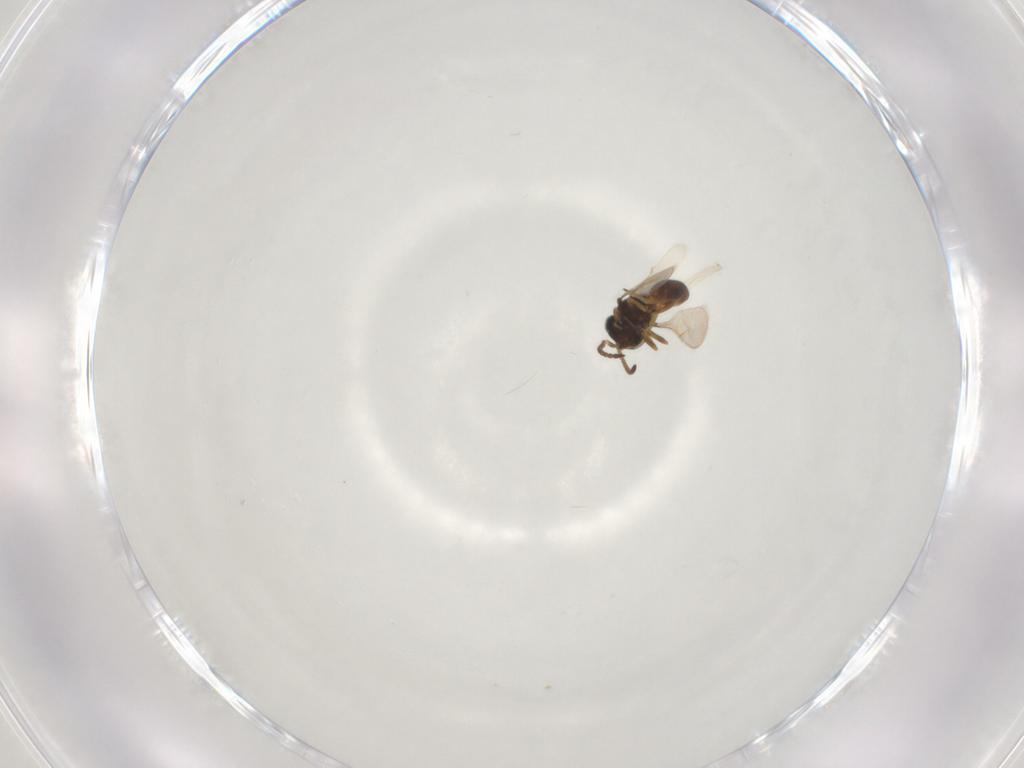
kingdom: Animalia
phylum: Arthropoda
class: Insecta
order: Hymenoptera
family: Scelionidae
